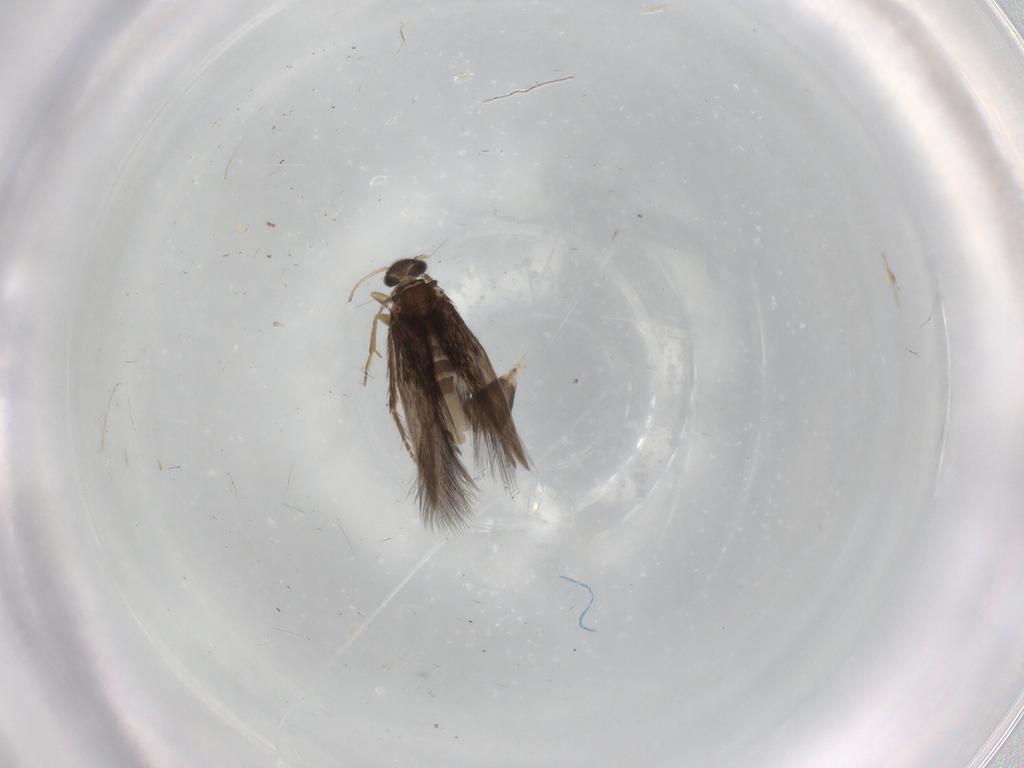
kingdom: Animalia
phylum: Arthropoda
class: Insecta
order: Trichoptera
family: Hydroptilidae
